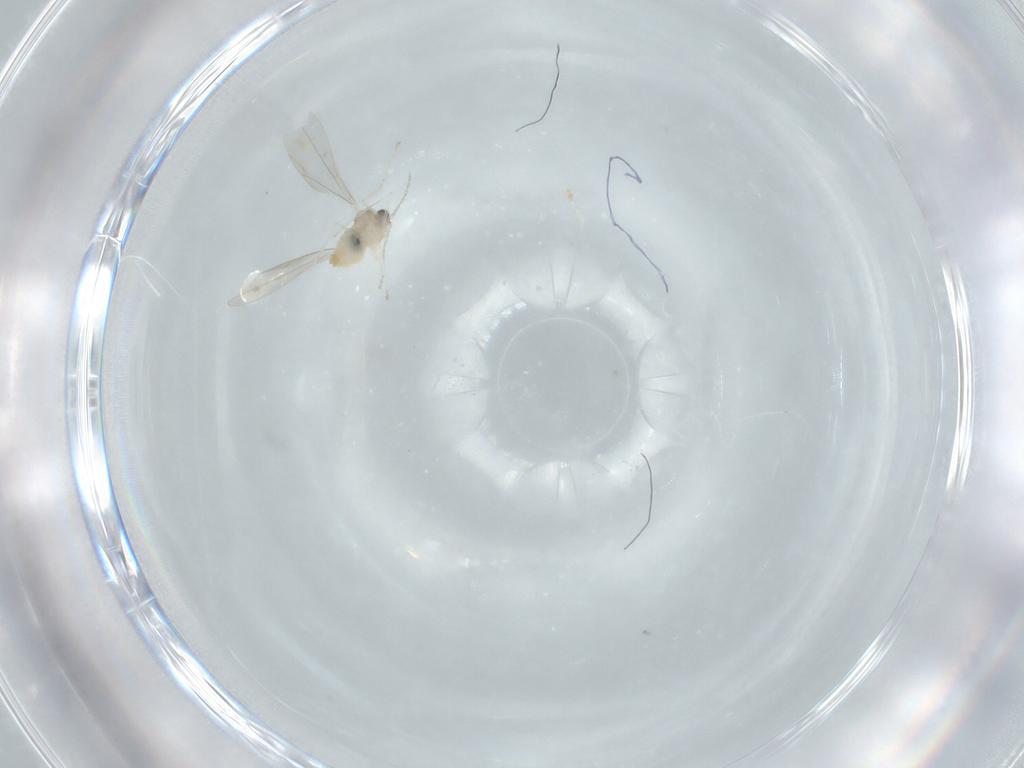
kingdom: Animalia
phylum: Arthropoda
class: Insecta
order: Diptera
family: Cecidomyiidae
